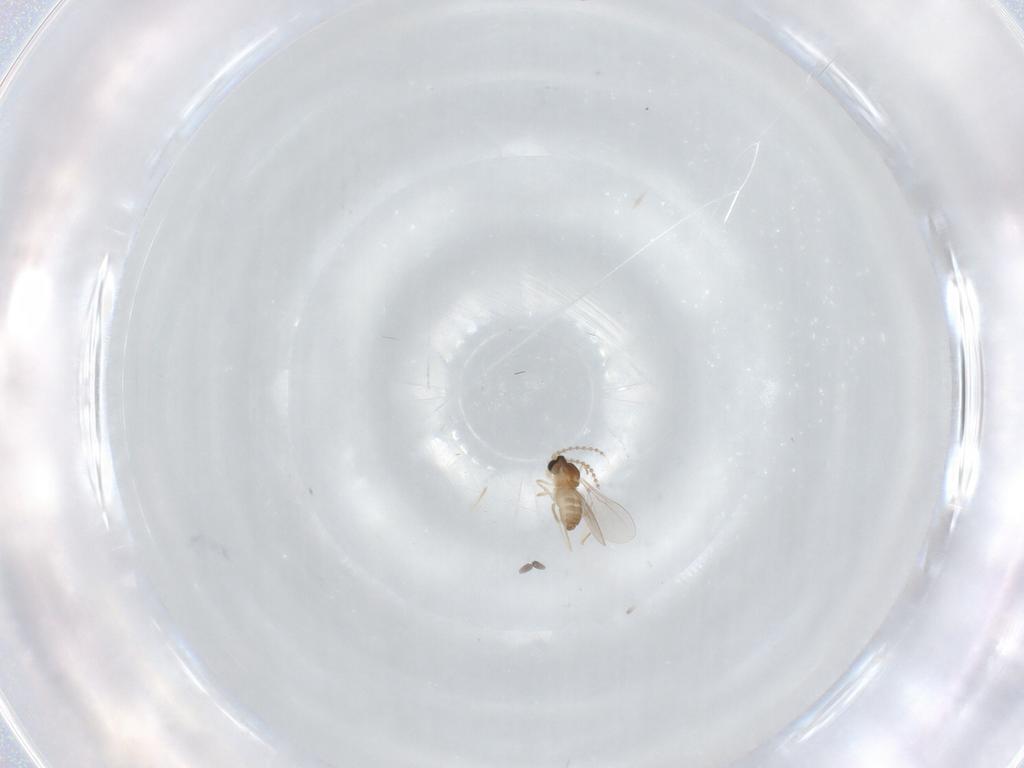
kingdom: Animalia
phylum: Arthropoda
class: Insecta
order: Diptera
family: Cecidomyiidae
